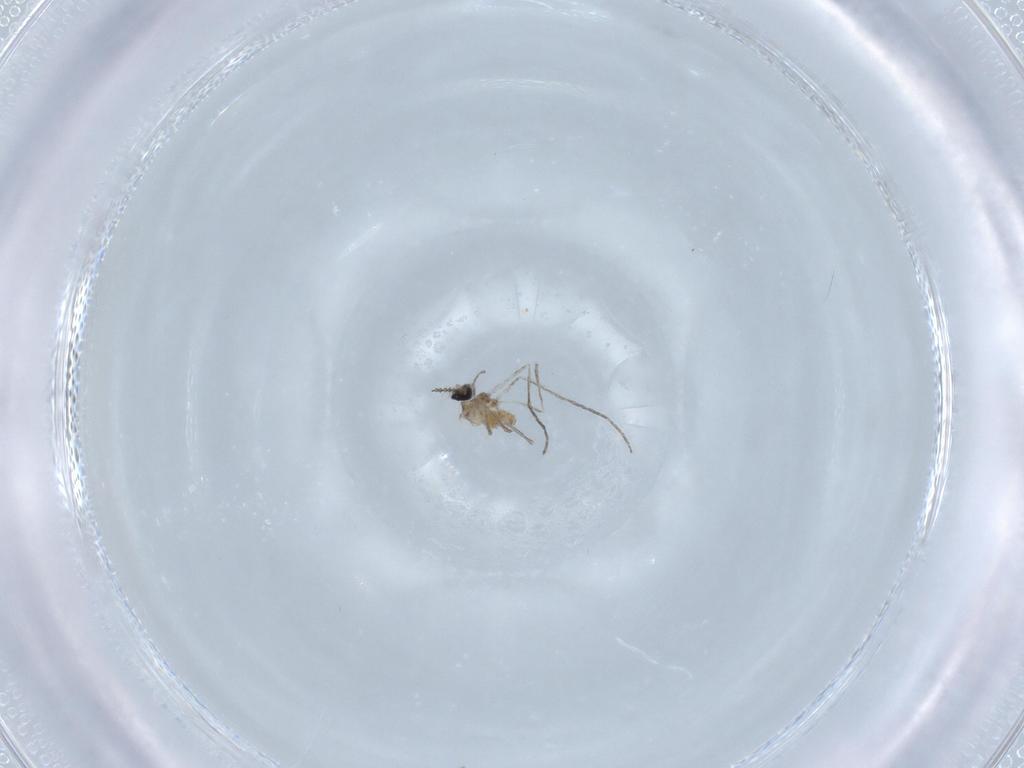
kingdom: Animalia
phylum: Arthropoda
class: Insecta
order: Diptera
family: Cecidomyiidae
